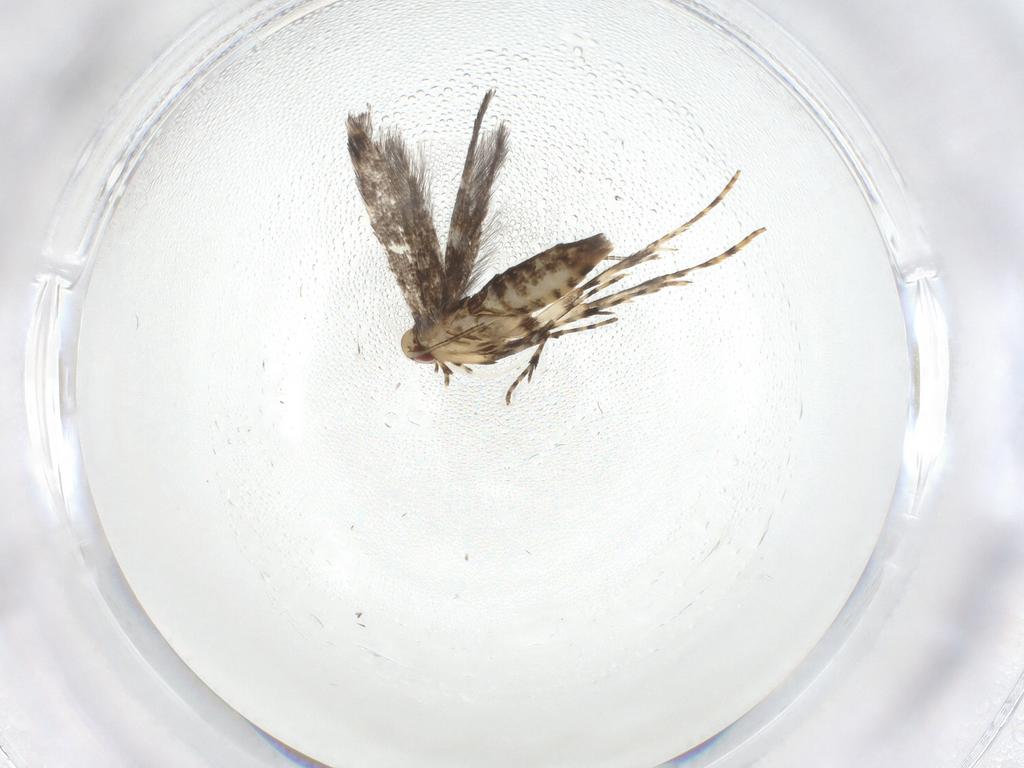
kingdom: Animalia
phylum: Arthropoda
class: Insecta
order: Lepidoptera
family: Gracillariidae
